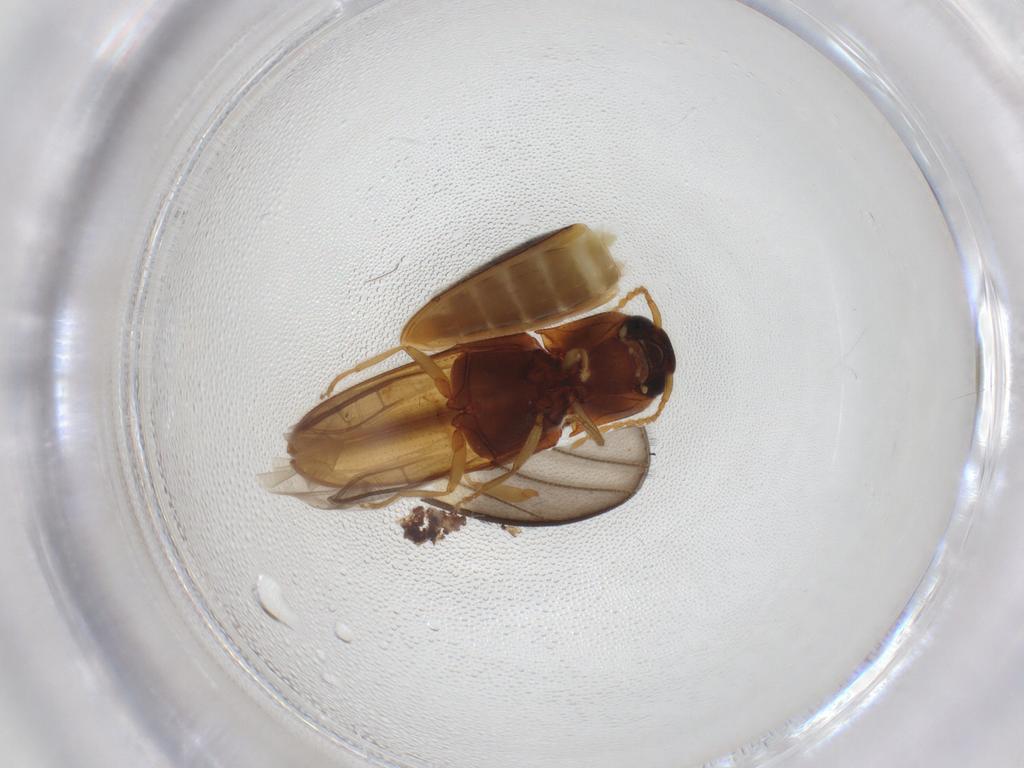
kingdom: Animalia
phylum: Arthropoda
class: Insecta
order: Coleoptera
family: Elateridae
